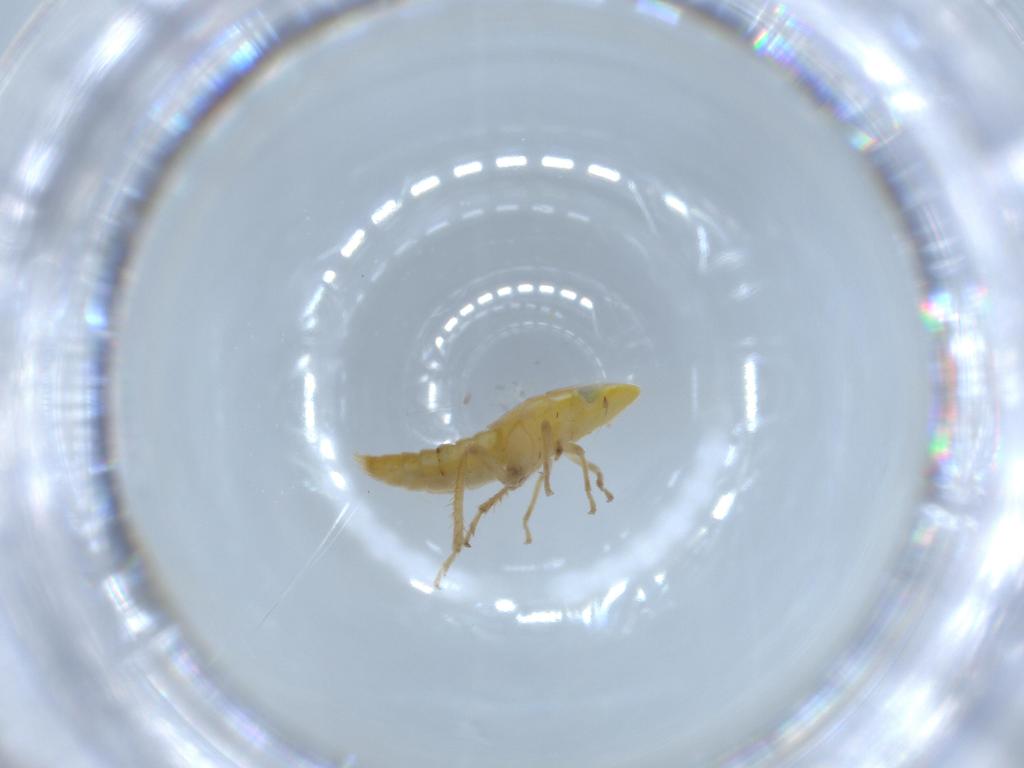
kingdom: Animalia
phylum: Arthropoda
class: Insecta
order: Hemiptera
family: Cicadellidae
